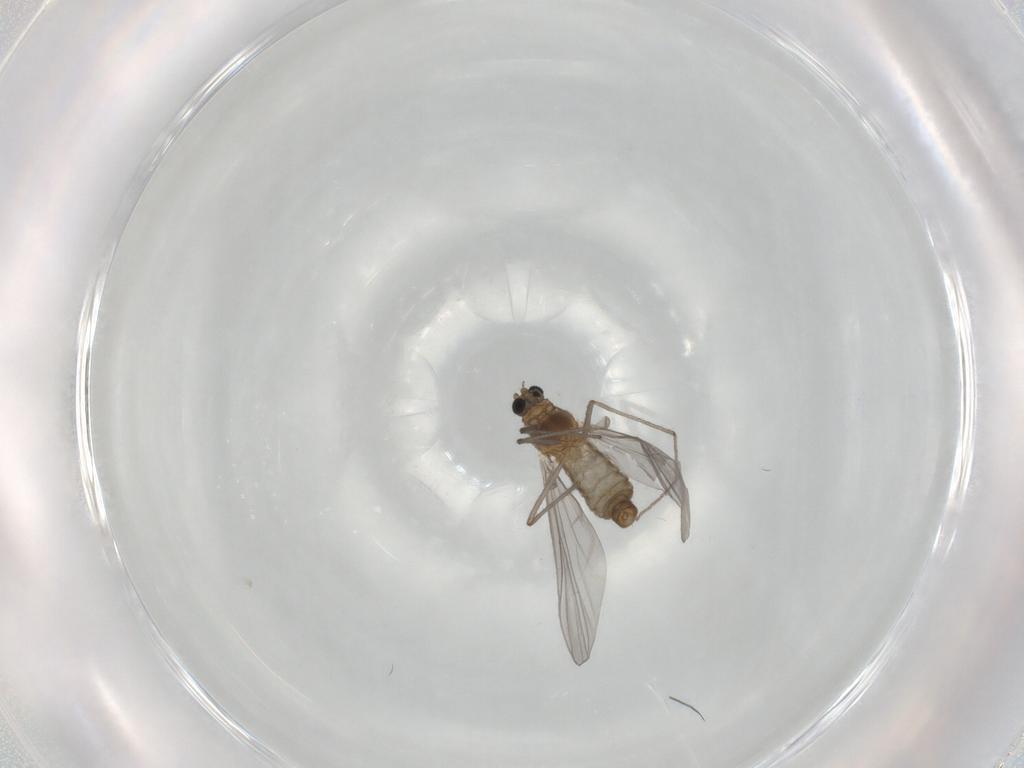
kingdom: Animalia
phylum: Arthropoda
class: Insecta
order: Diptera
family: Chironomidae
